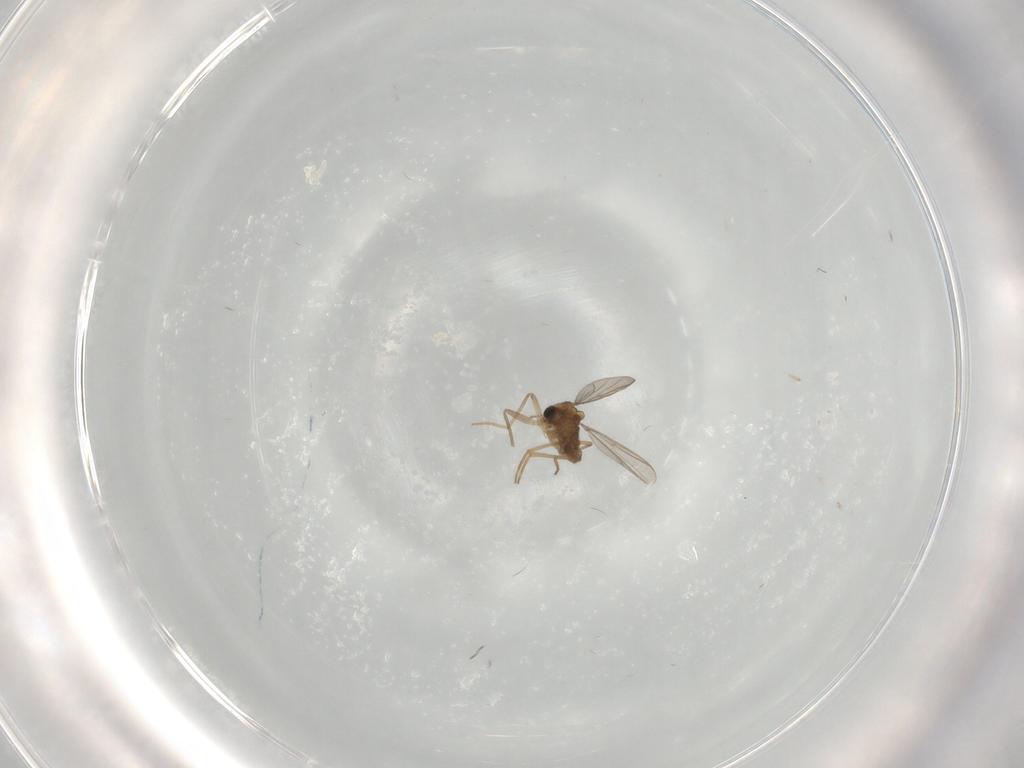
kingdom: Animalia
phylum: Arthropoda
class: Insecta
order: Diptera
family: Cecidomyiidae
